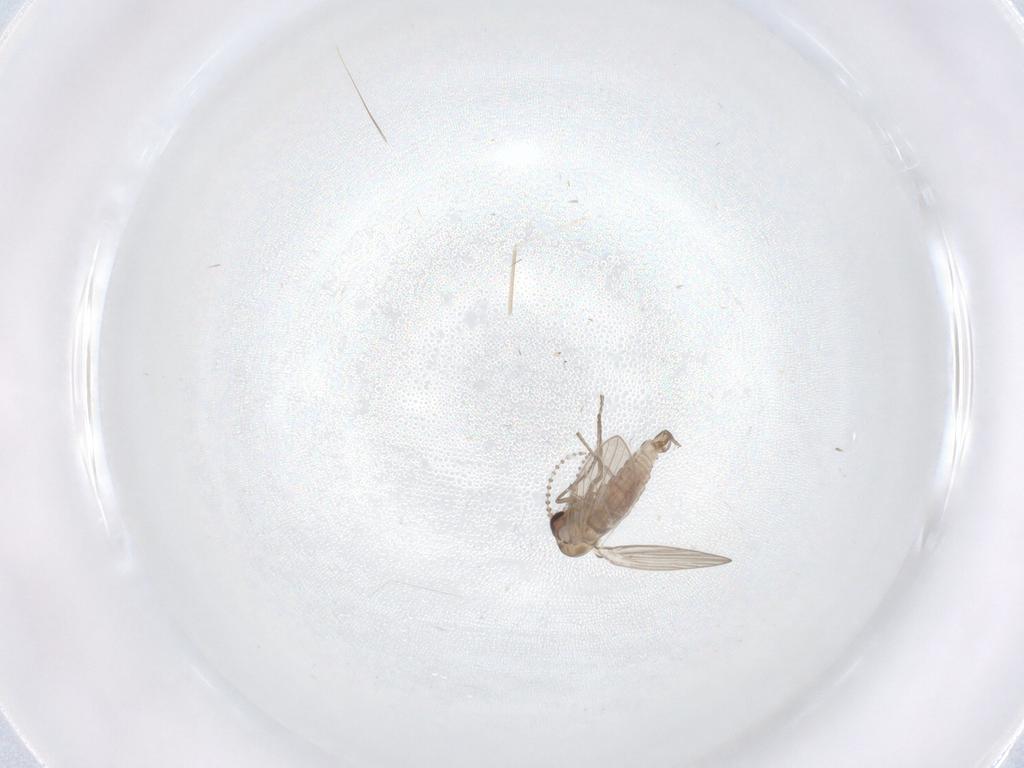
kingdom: Animalia
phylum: Arthropoda
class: Insecta
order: Diptera
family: Psychodidae
